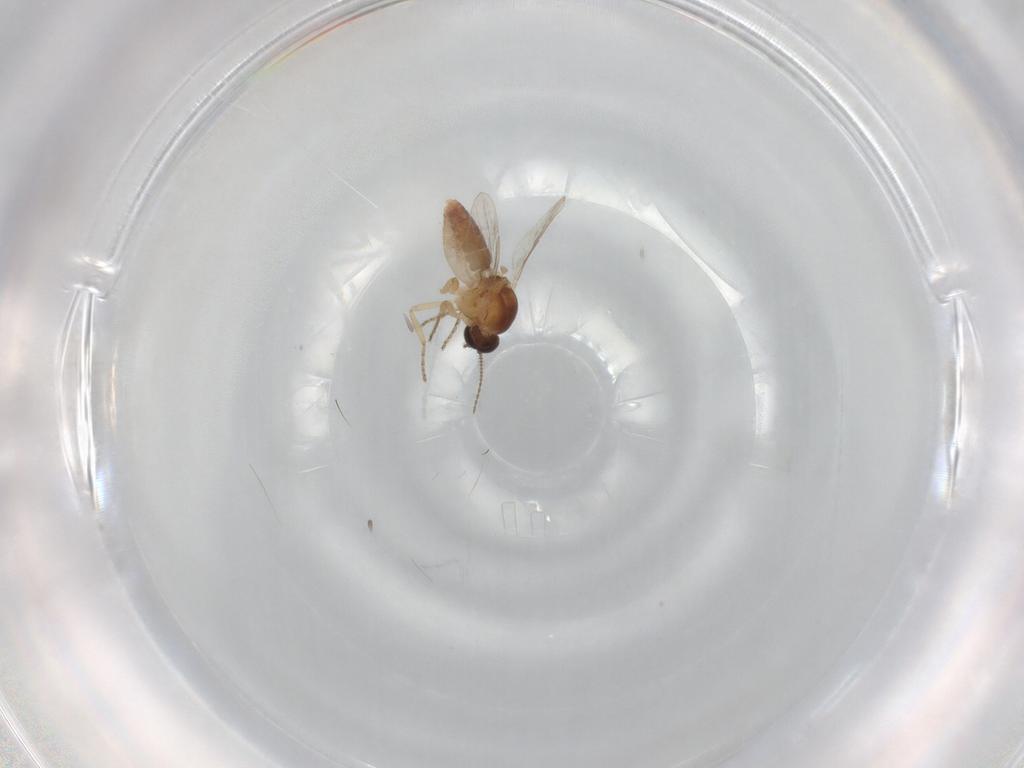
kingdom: Animalia
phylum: Arthropoda
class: Insecta
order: Diptera
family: Ceratopogonidae
